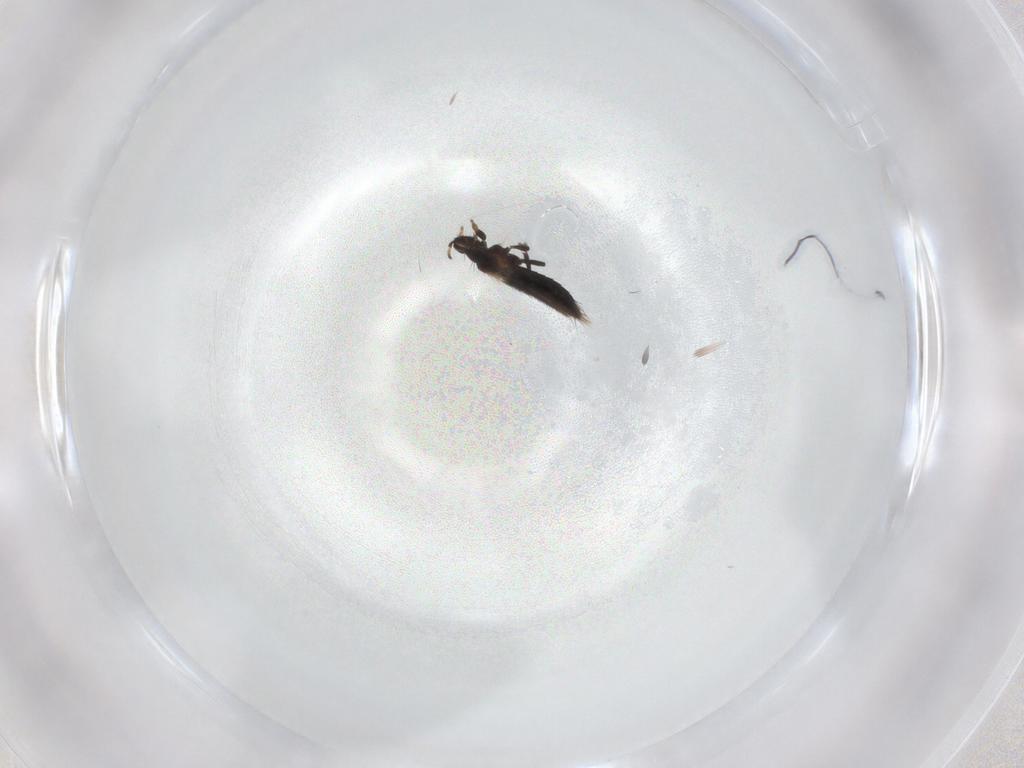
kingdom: Animalia
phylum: Arthropoda
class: Insecta
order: Thysanoptera
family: Thripidae
